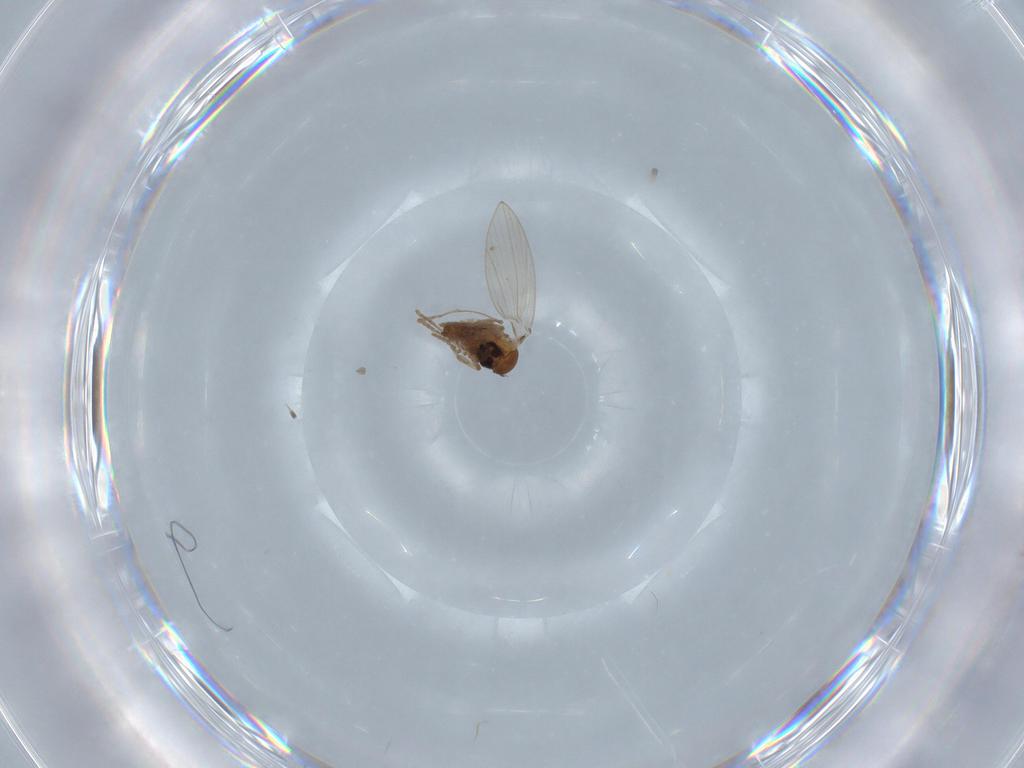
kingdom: Animalia
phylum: Arthropoda
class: Insecta
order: Diptera
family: Psychodidae
